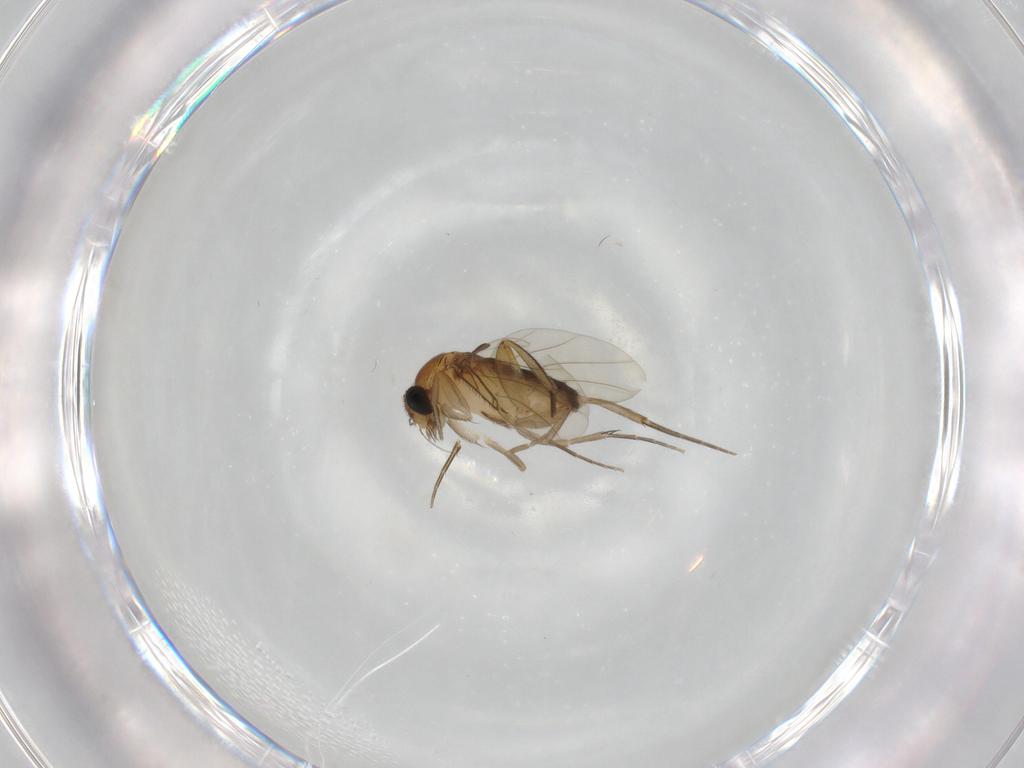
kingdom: Animalia
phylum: Arthropoda
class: Insecta
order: Diptera
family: Phoridae
